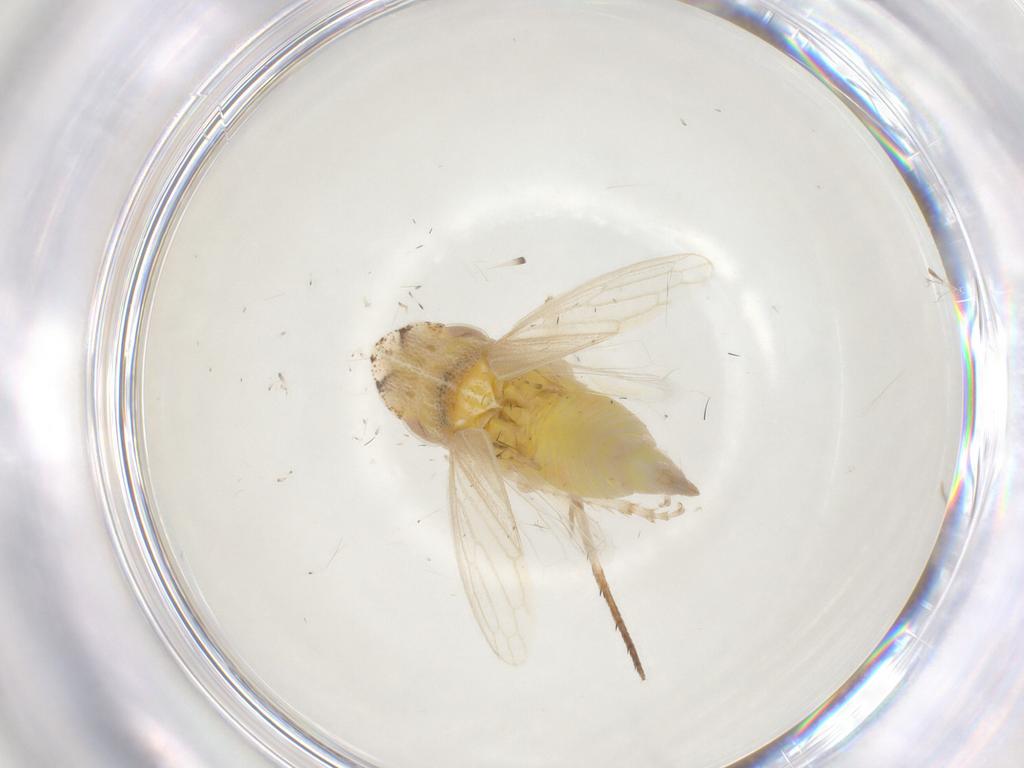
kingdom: Animalia
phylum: Arthropoda
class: Insecta
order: Hemiptera
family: Cicadellidae
